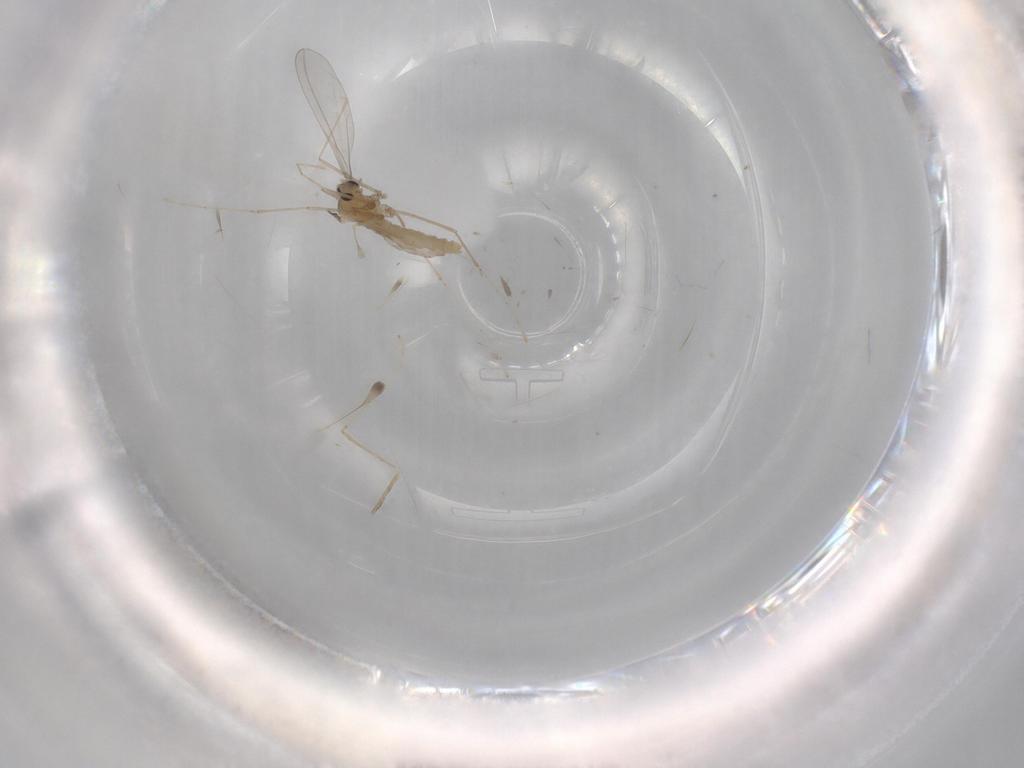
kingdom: Animalia
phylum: Arthropoda
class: Insecta
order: Diptera
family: Cecidomyiidae
